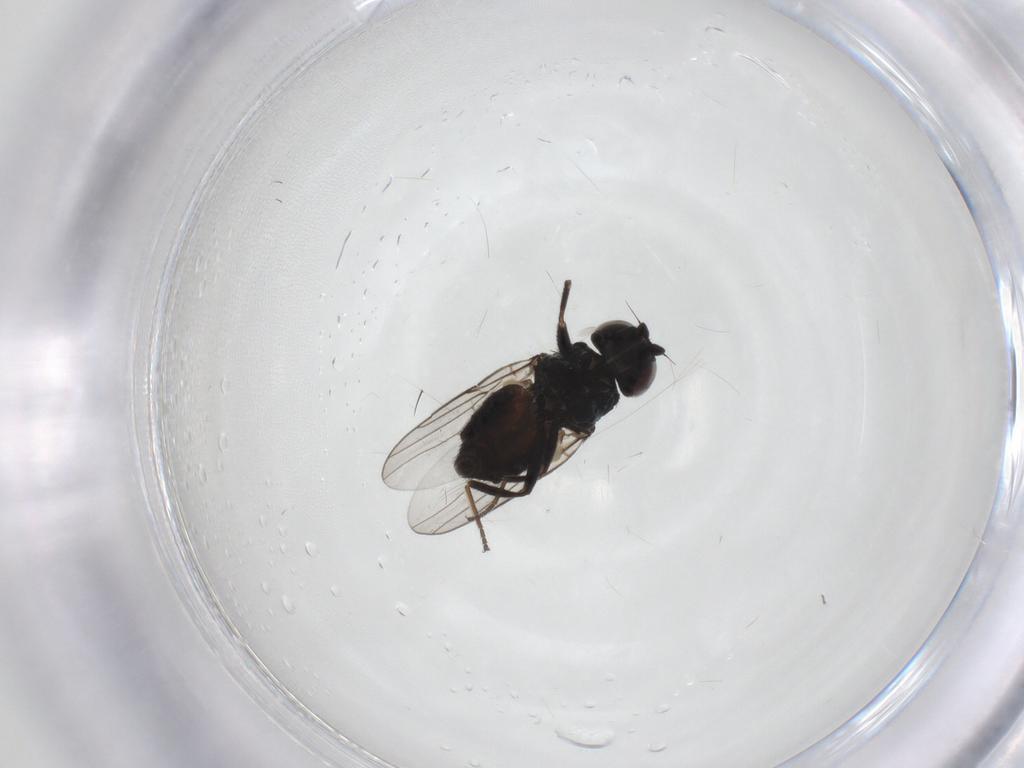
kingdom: Animalia
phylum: Arthropoda
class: Insecta
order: Diptera
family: Chloropidae
